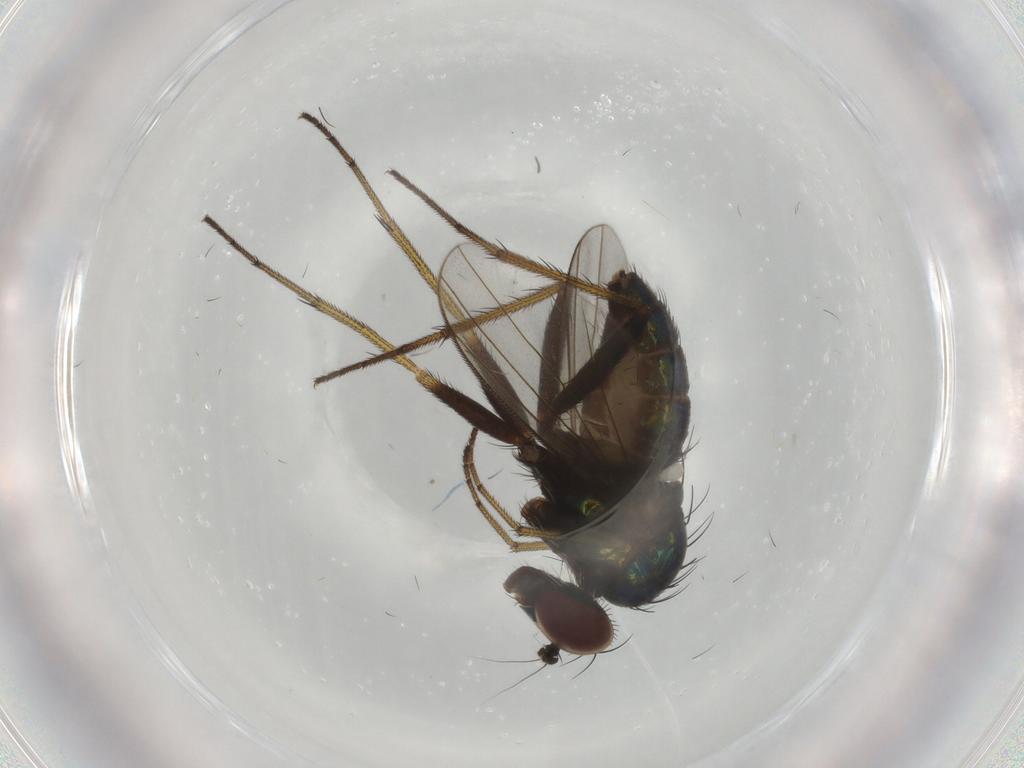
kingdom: Animalia
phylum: Arthropoda
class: Insecta
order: Diptera
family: Dolichopodidae
